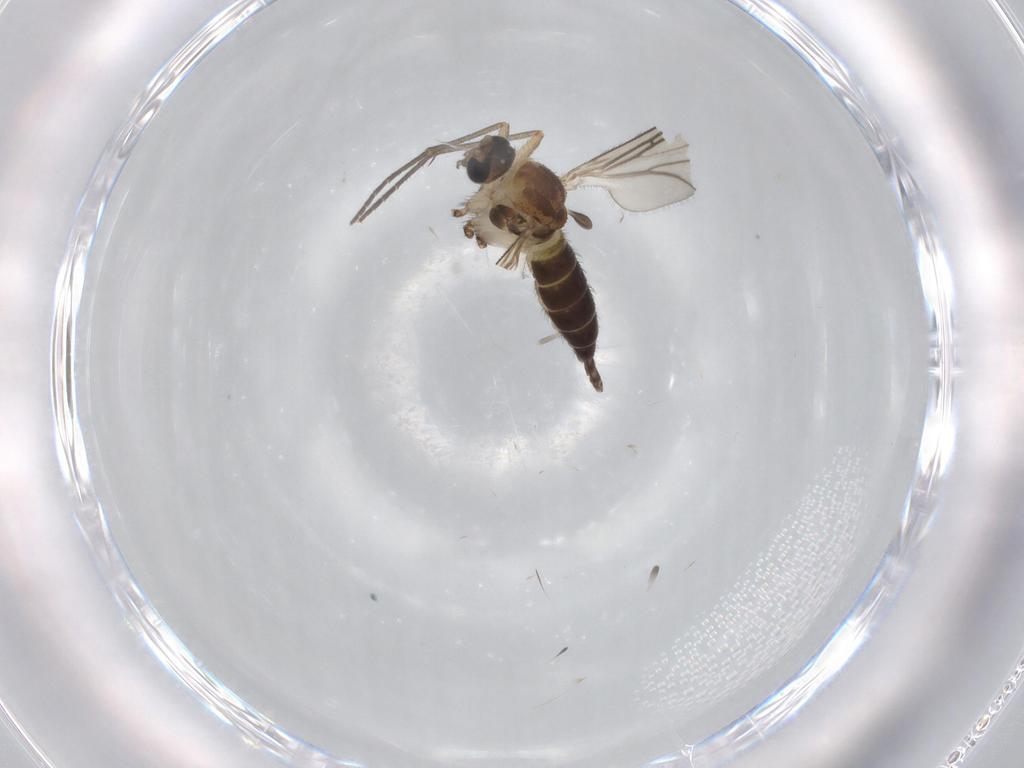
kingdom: Animalia
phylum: Arthropoda
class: Insecta
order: Diptera
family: Sciaridae
